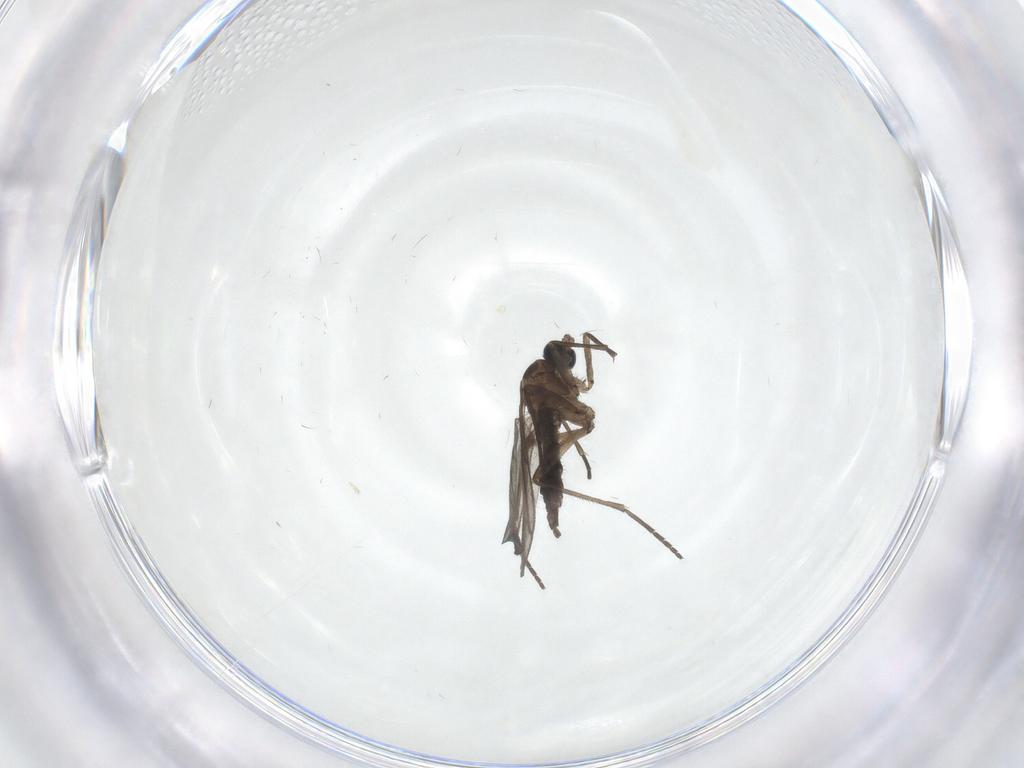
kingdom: Animalia
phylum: Arthropoda
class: Insecta
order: Diptera
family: Sciaridae
